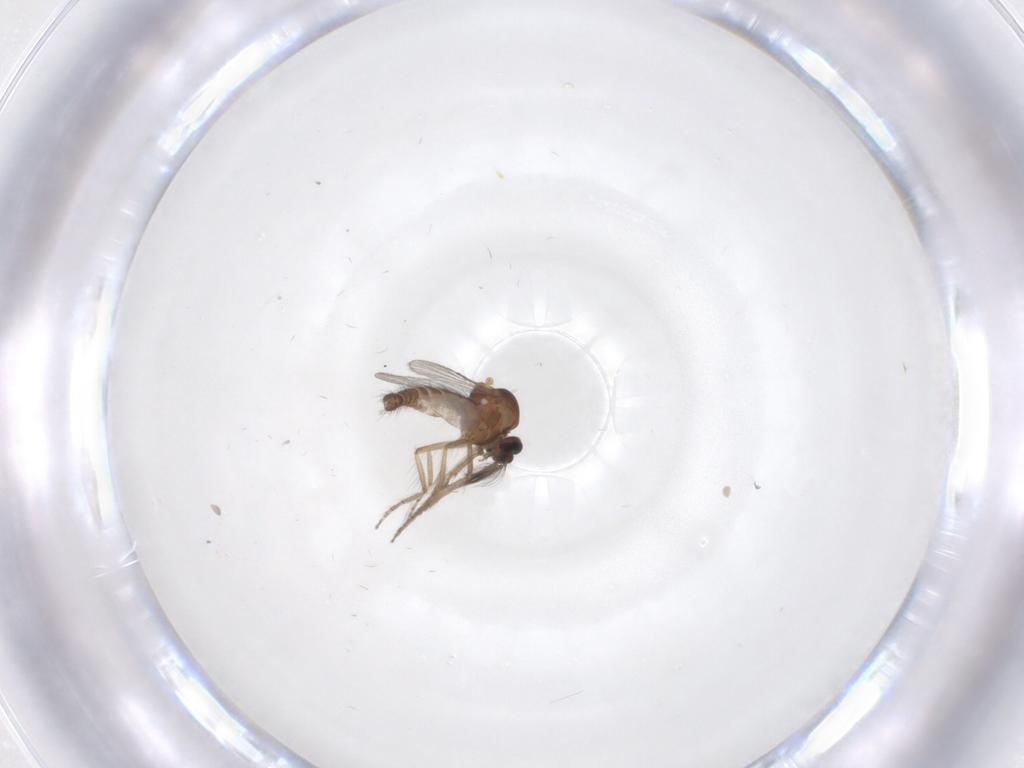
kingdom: Animalia
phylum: Arthropoda
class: Insecta
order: Diptera
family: Ceratopogonidae
